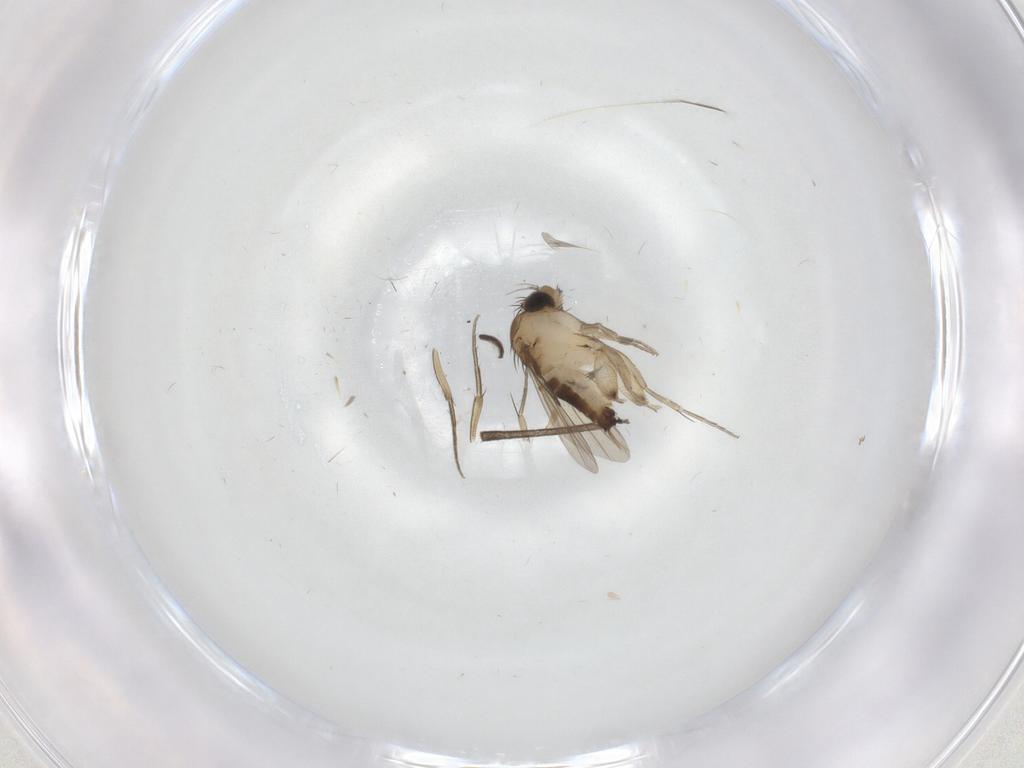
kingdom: Animalia
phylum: Arthropoda
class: Insecta
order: Diptera
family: Phoridae
